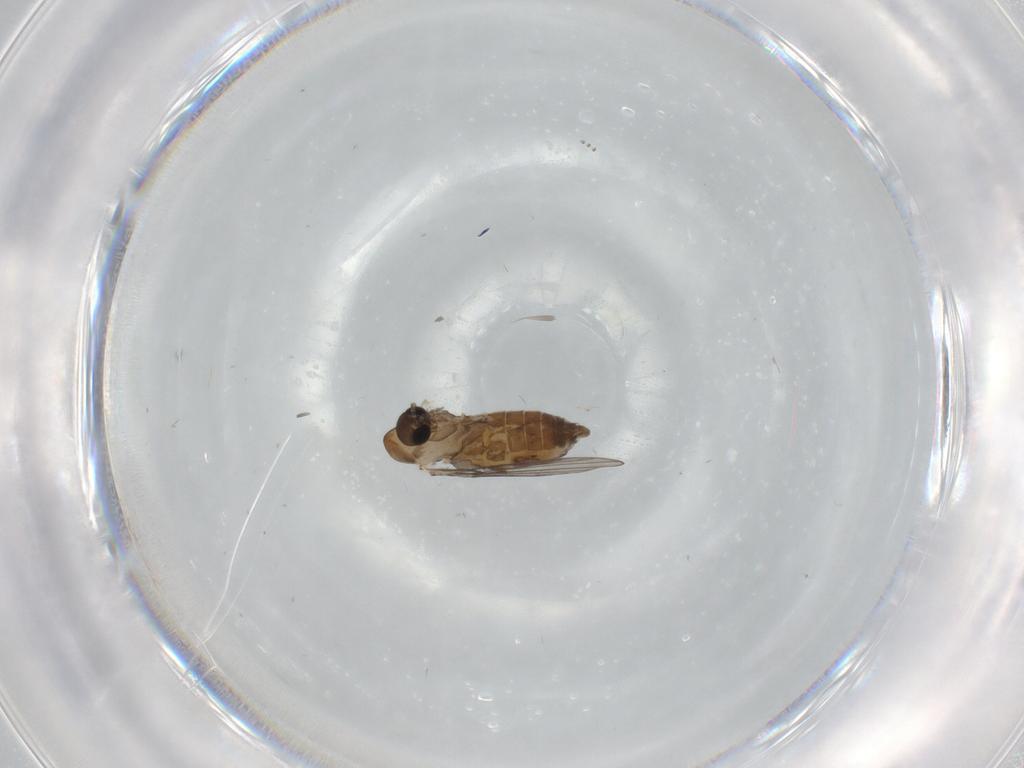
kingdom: Animalia
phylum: Arthropoda
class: Insecta
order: Diptera
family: Psychodidae
